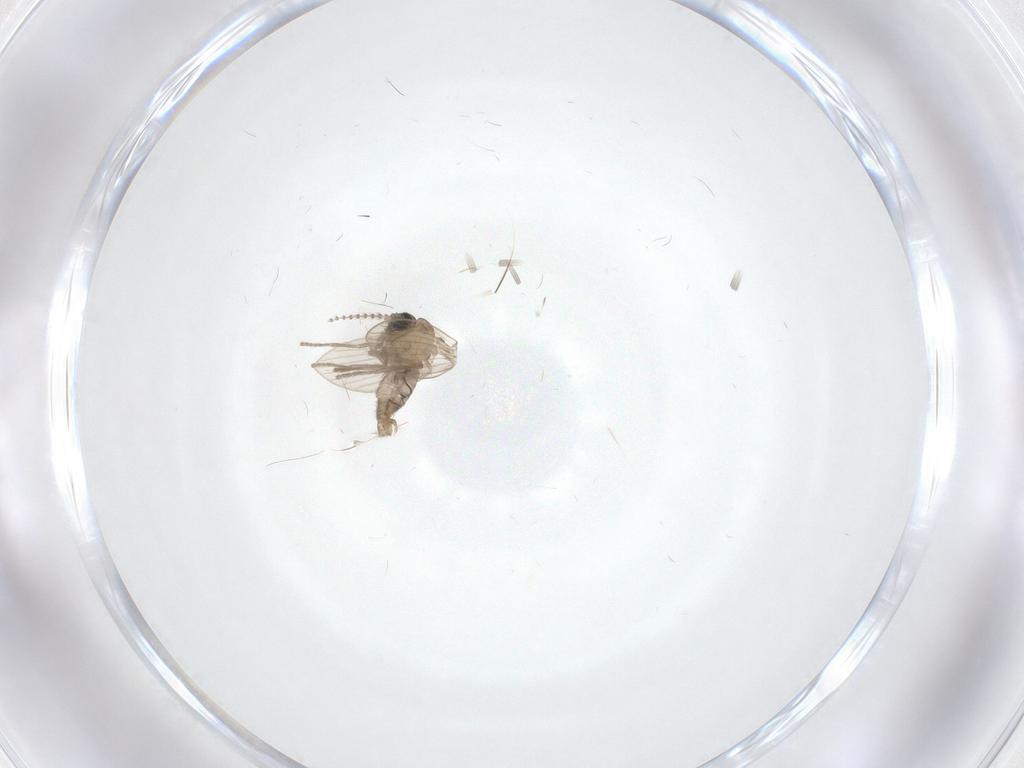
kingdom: Animalia
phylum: Arthropoda
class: Insecta
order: Diptera
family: Psychodidae
